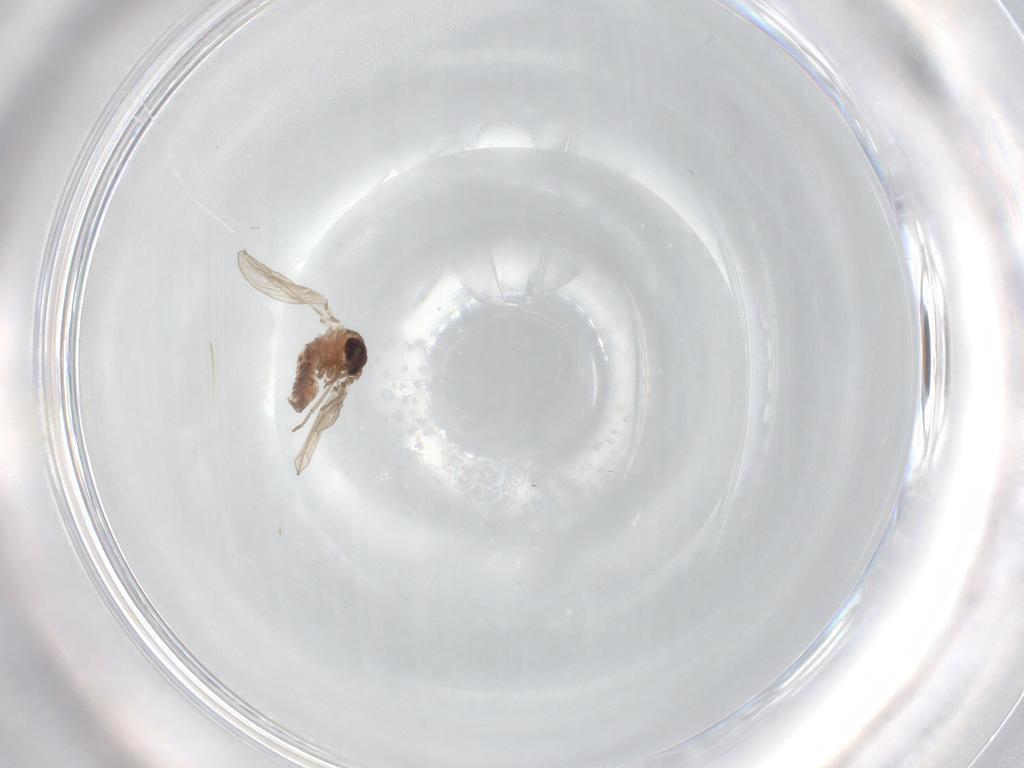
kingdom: Animalia
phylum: Arthropoda
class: Insecta
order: Diptera
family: Psychodidae
